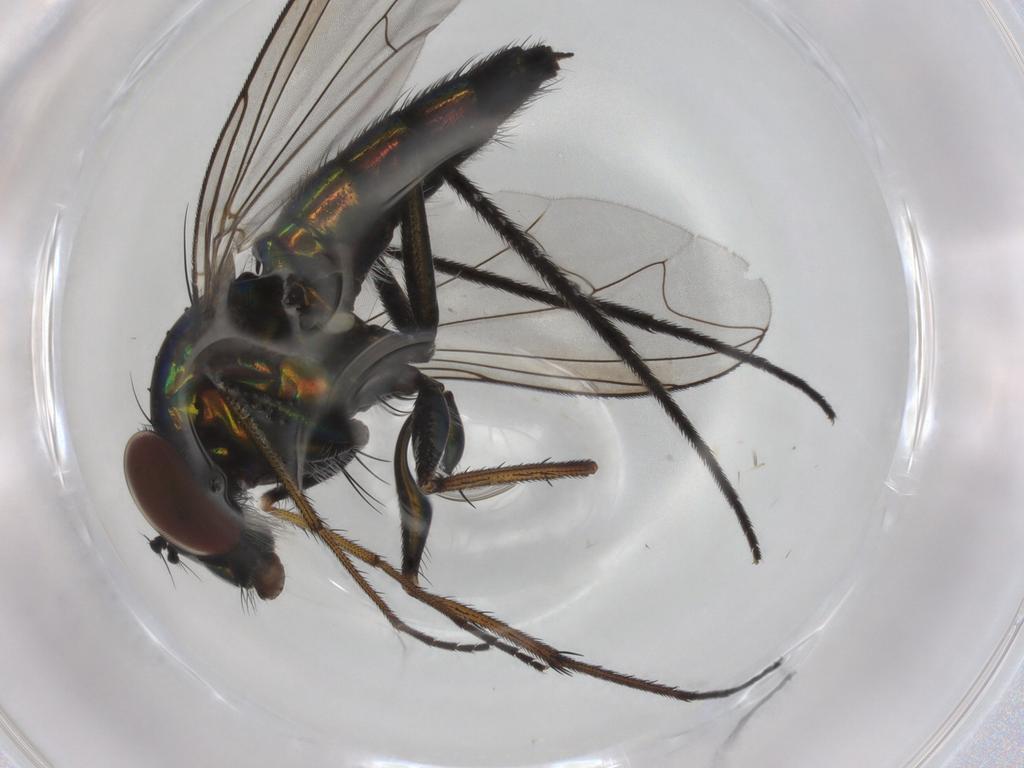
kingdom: Animalia
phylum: Arthropoda
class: Insecta
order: Diptera
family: Dolichopodidae
